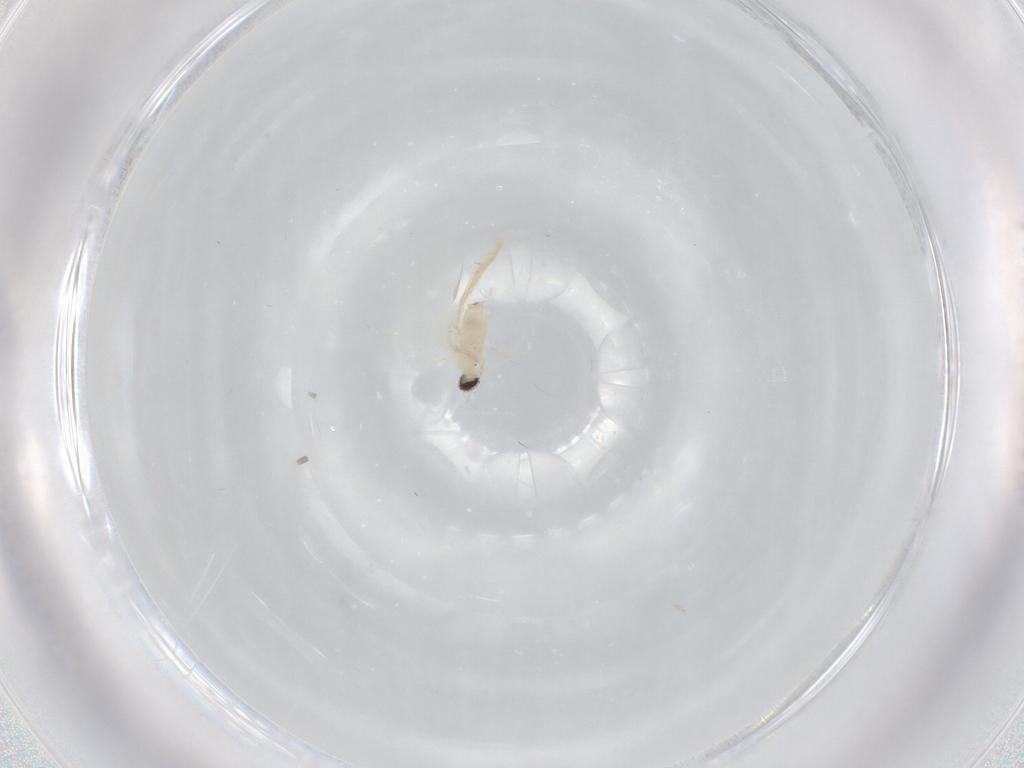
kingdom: Animalia
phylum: Arthropoda
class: Insecta
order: Diptera
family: Cecidomyiidae
